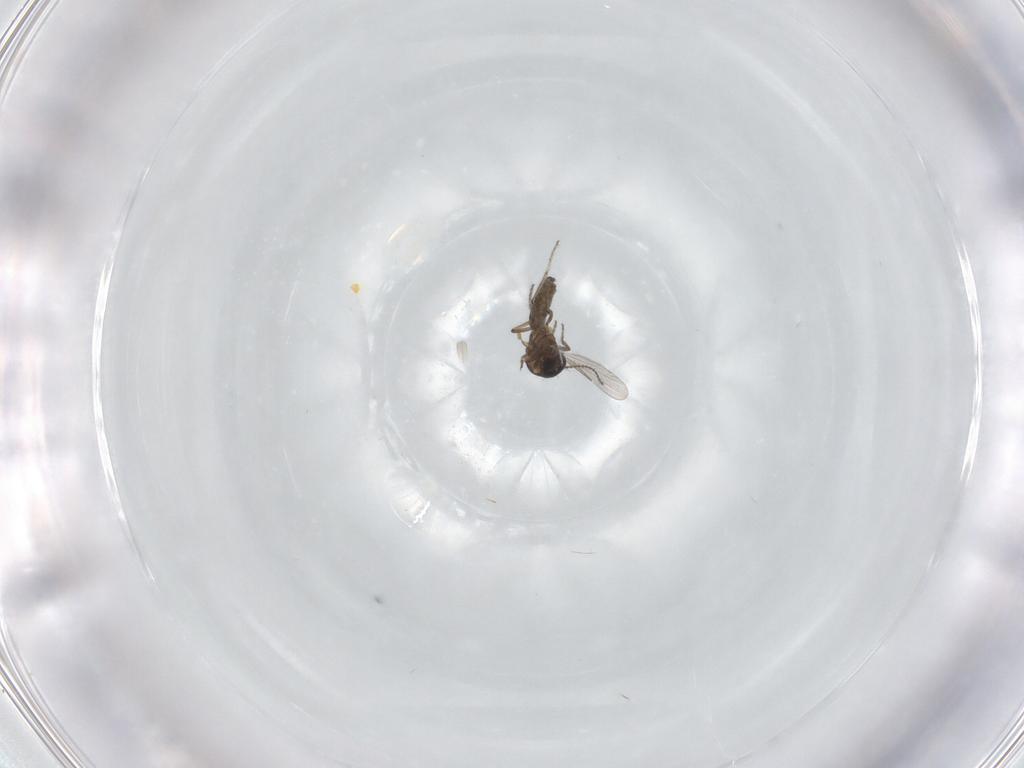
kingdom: Animalia
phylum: Arthropoda
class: Insecta
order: Diptera
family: Ceratopogonidae
